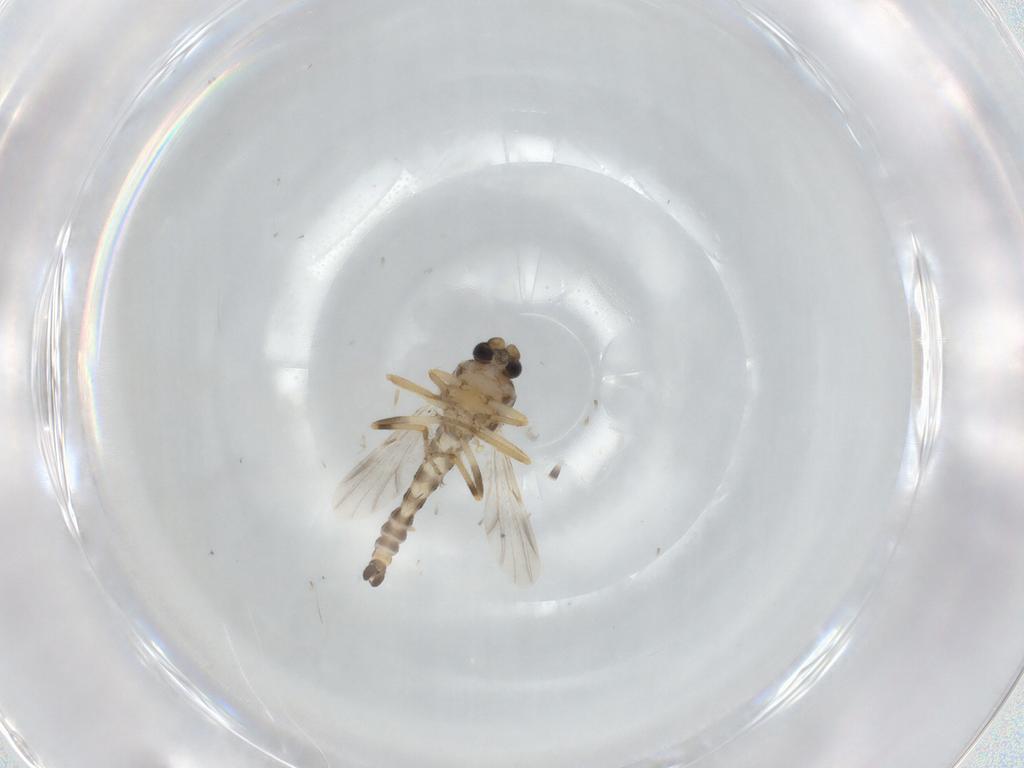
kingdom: Animalia
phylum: Arthropoda
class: Insecta
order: Diptera
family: Ceratopogonidae
